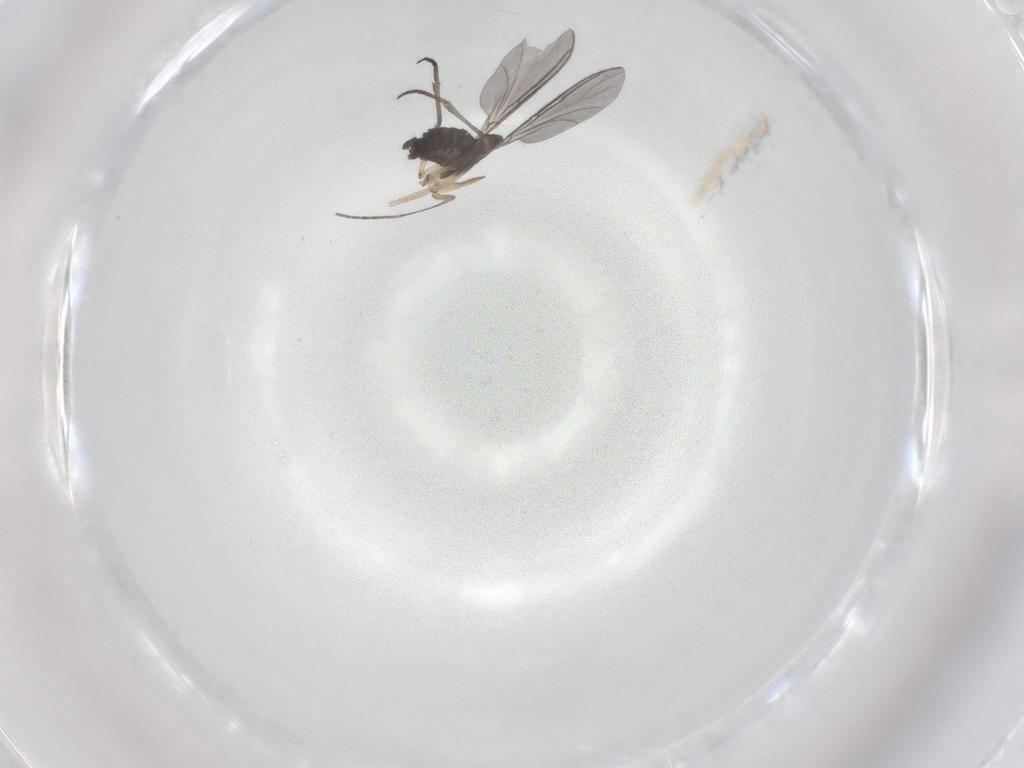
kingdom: Animalia
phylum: Arthropoda
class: Insecta
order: Diptera
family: Sciaridae
